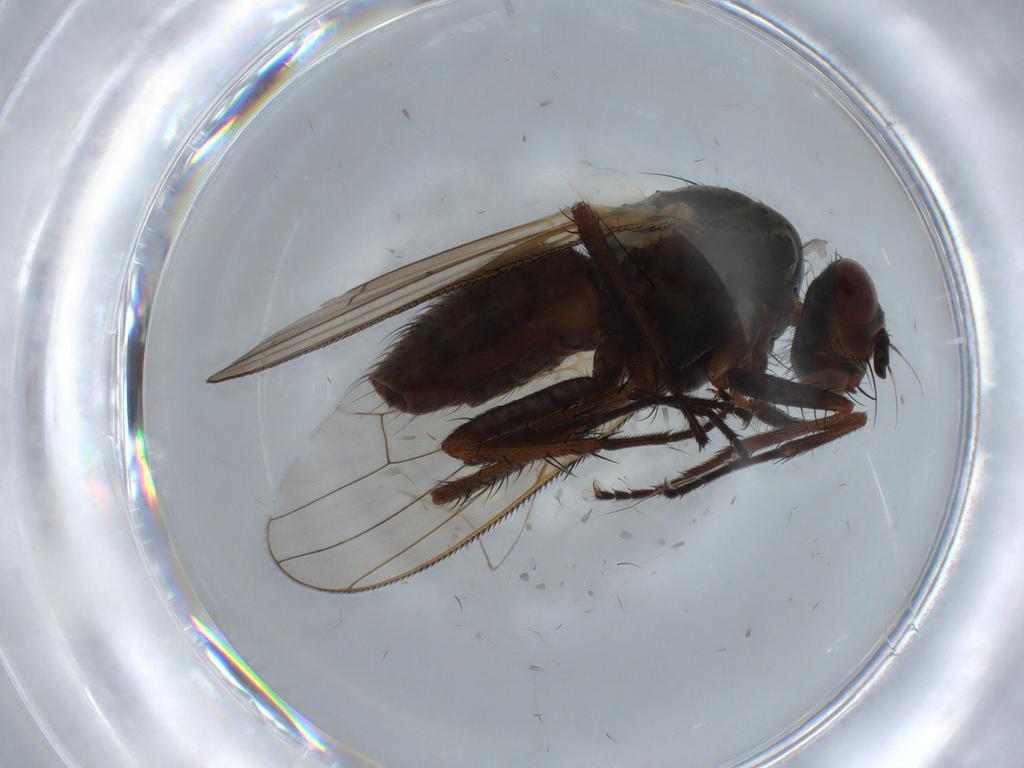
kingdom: Animalia
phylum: Arthropoda
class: Insecta
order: Diptera
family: Anthomyiidae
